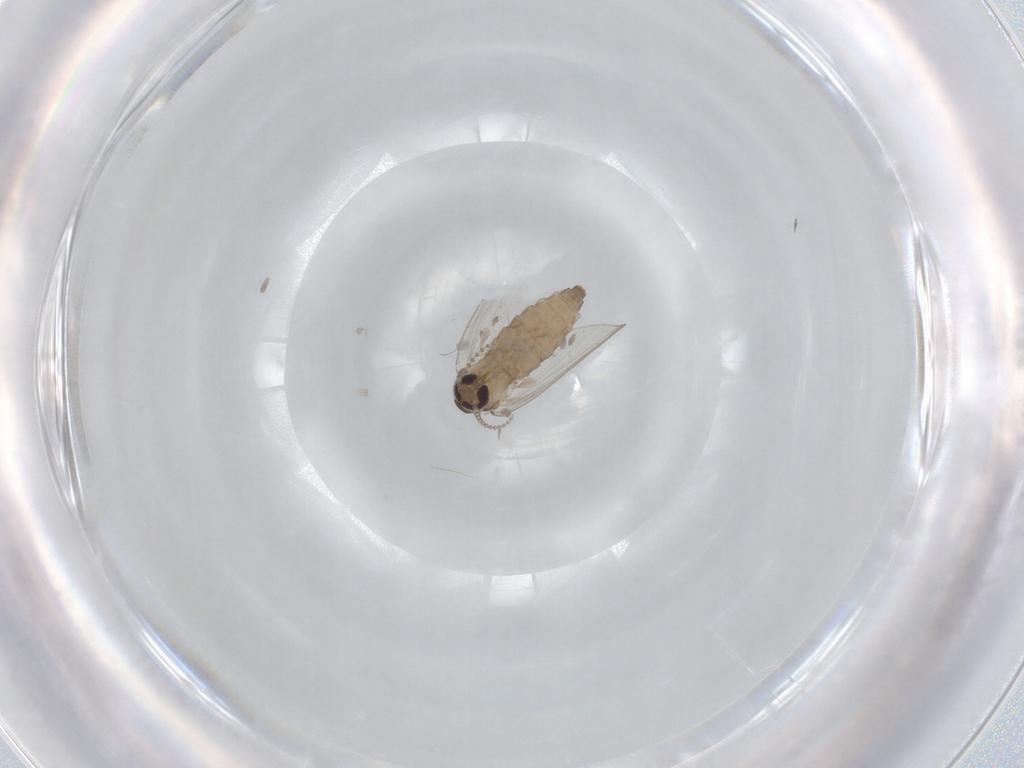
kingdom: Animalia
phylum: Arthropoda
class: Insecta
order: Diptera
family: Psychodidae
